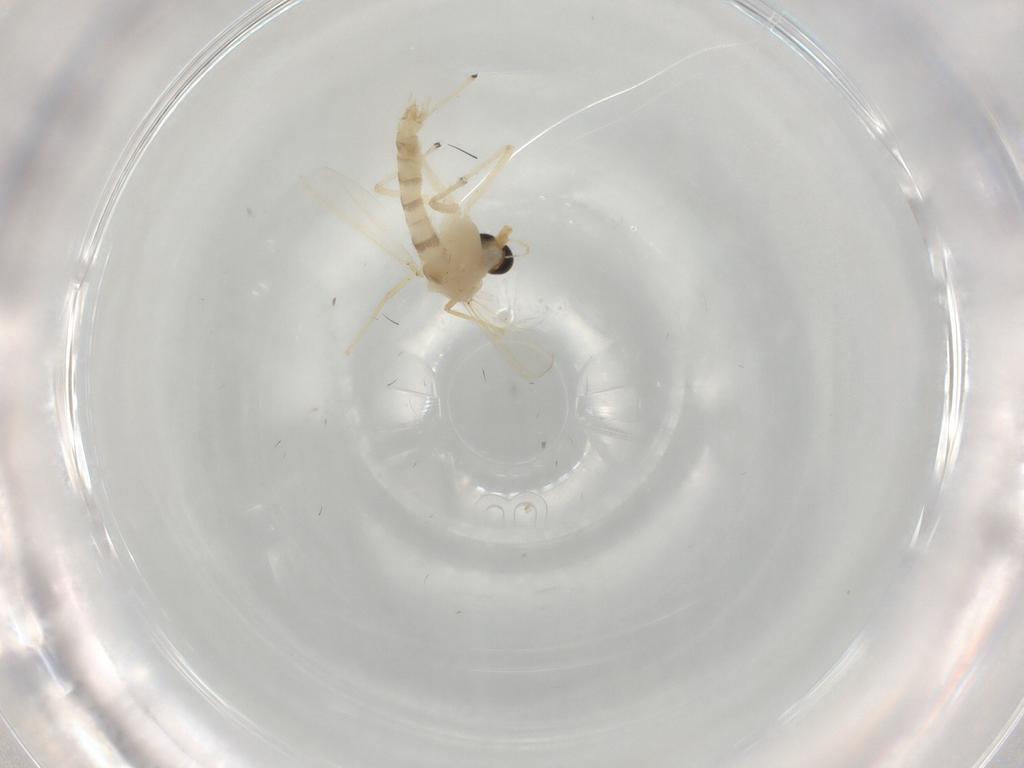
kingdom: Animalia
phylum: Arthropoda
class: Insecta
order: Diptera
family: Chironomidae
